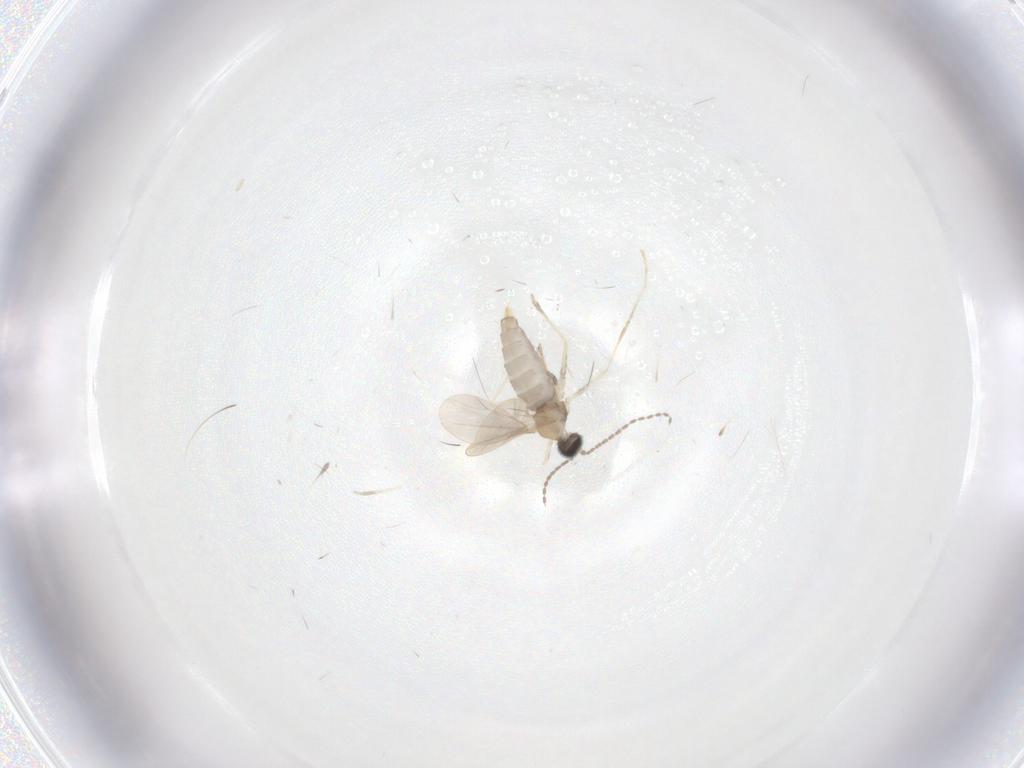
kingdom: Animalia
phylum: Arthropoda
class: Insecta
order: Diptera
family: Cecidomyiidae
